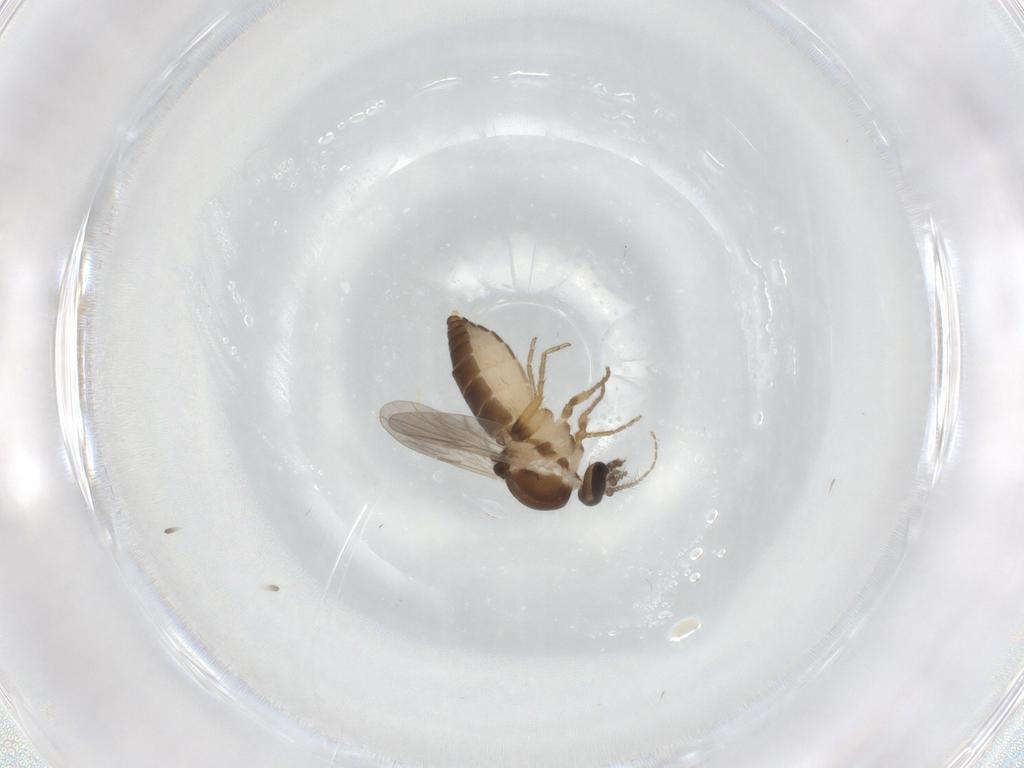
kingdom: Animalia
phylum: Arthropoda
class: Insecta
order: Diptera
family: Ceratopogonidae
